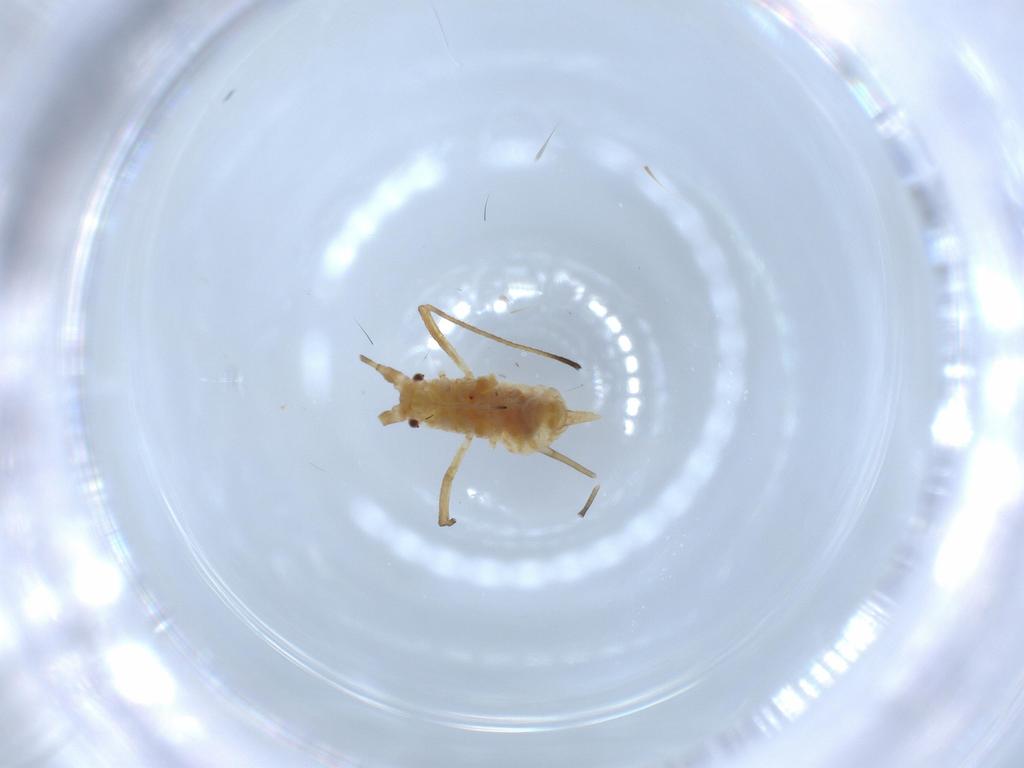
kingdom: Animalia
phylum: Arthropoda
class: Insecta
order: Hemiptera
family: Aphididae
